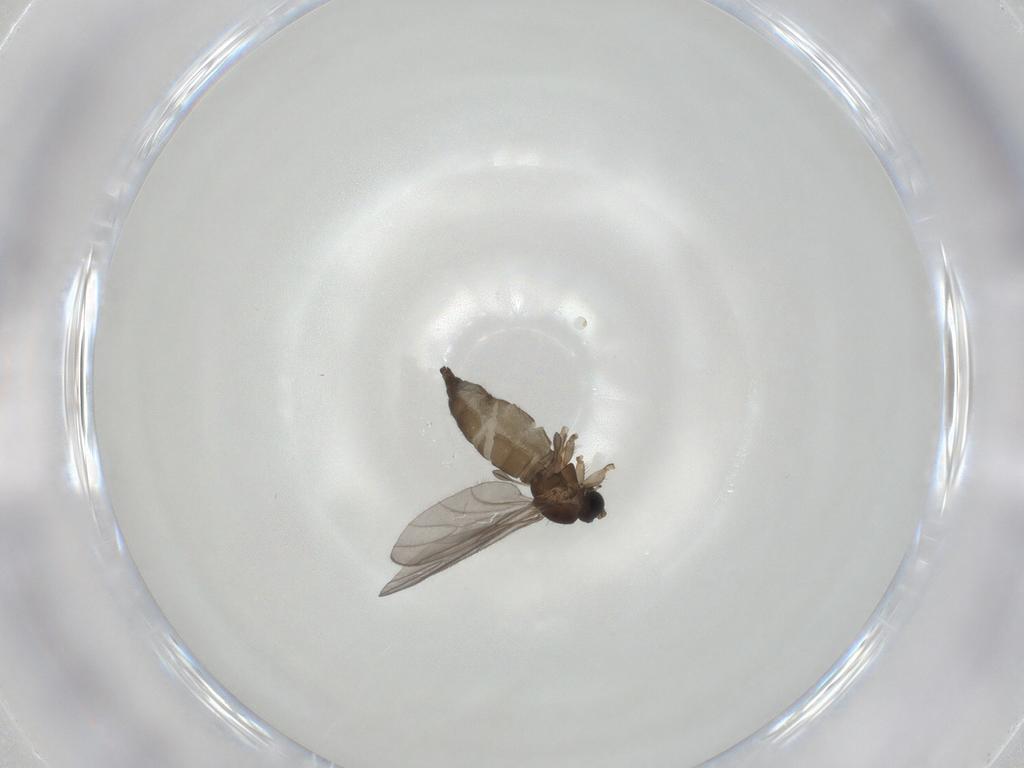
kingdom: Animalia
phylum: Arthropoda
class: Insecta
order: Diptera
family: Sciaridae
